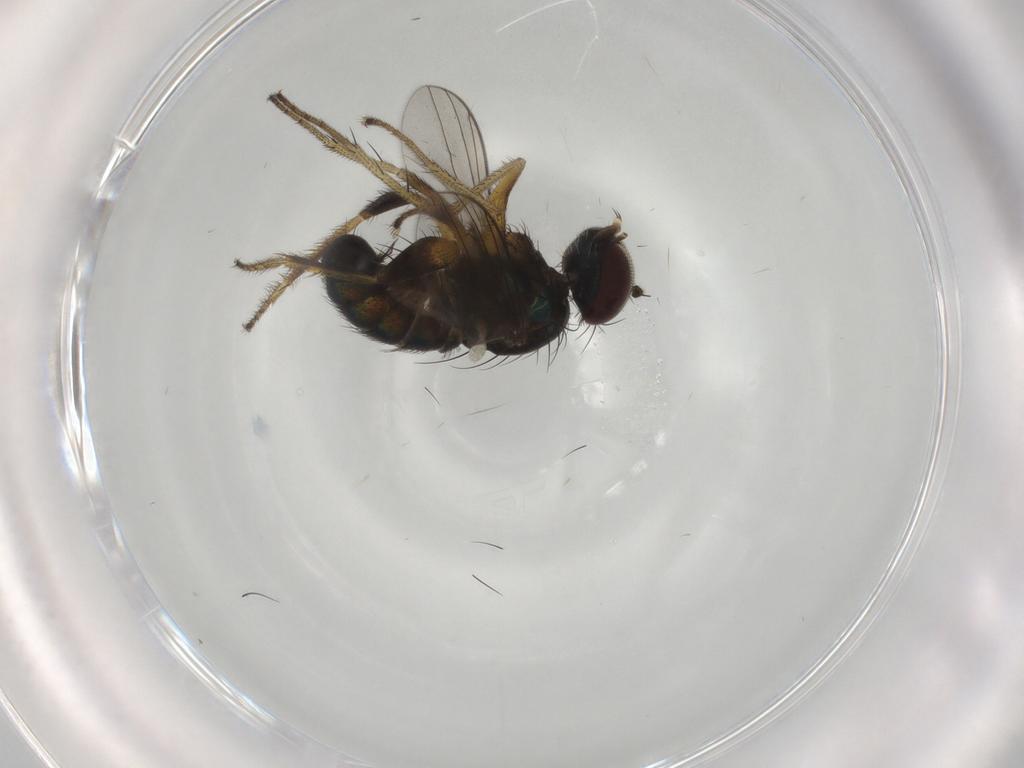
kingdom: Animalia
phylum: Arthropoda
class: Insecta
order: Diptera
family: Dolichopodidae
